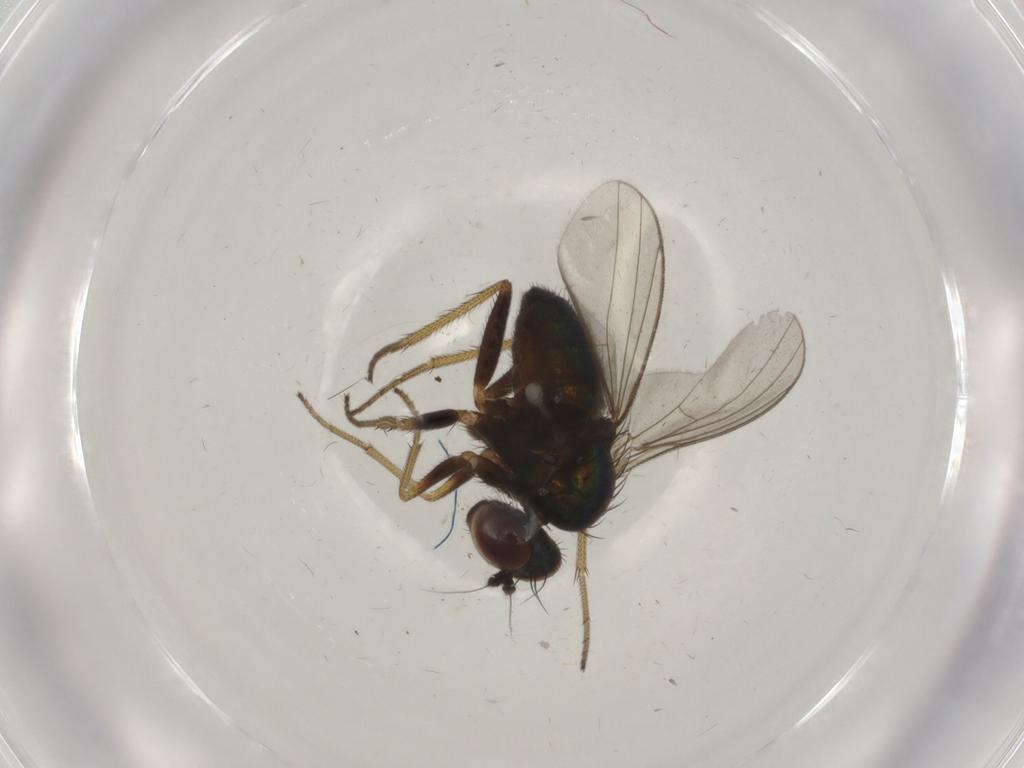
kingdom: Animalia
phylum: Arthropoda
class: Insecta
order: Diptera
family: Dolichopodidae
